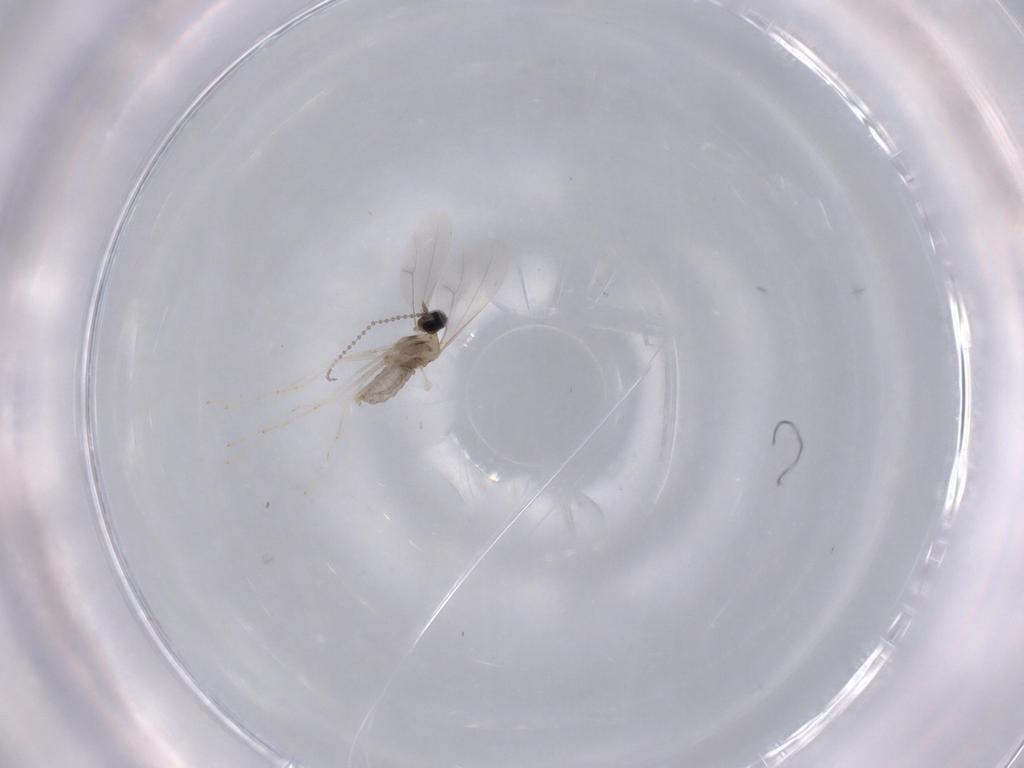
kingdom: Animalia
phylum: Arthropoda
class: Insecta
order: Diptera
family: Cecidomyiidae
